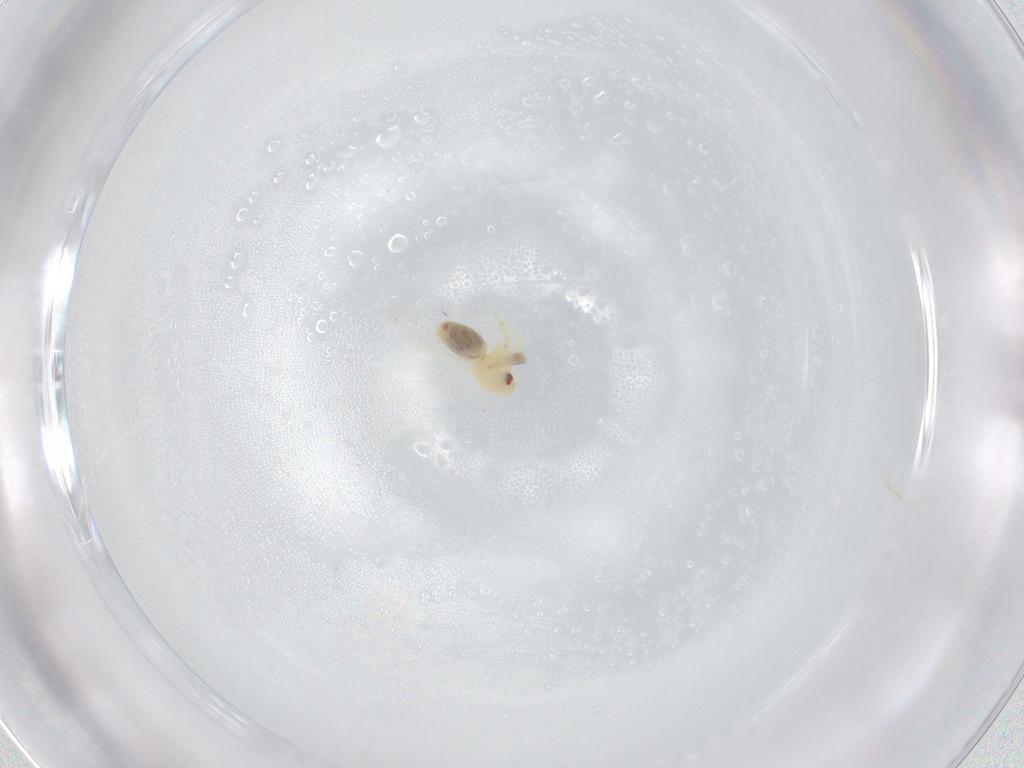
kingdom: Animalia
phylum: Arthropoda
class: Insecta
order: Hemiptera
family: Aleyrodidae
